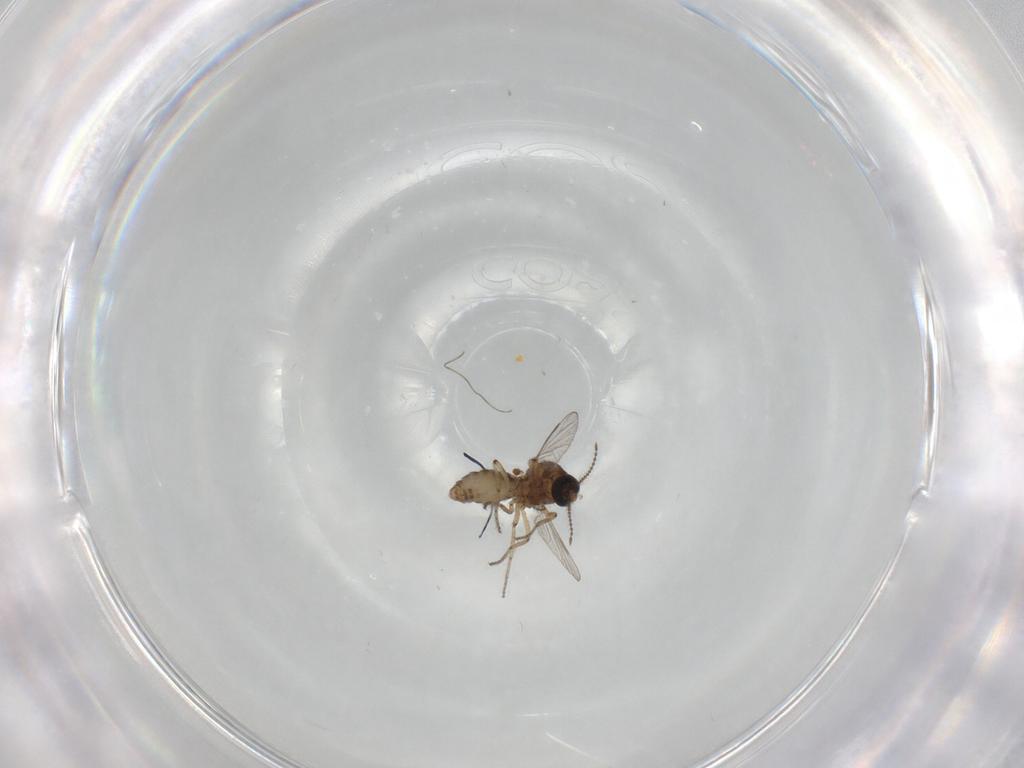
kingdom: Animalia
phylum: Arthropoda
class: Insecta
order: Diptera
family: Ceratopogonidae
